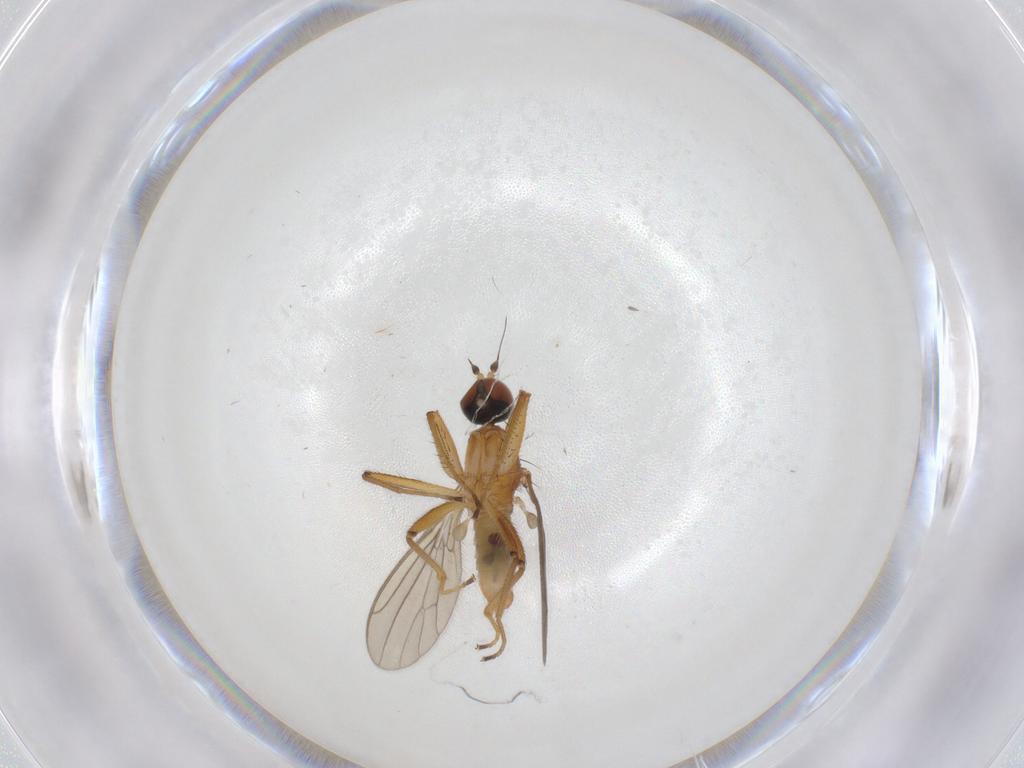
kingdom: Animalia
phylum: Arthropoda
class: Insecta
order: Diptera
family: Empididae
